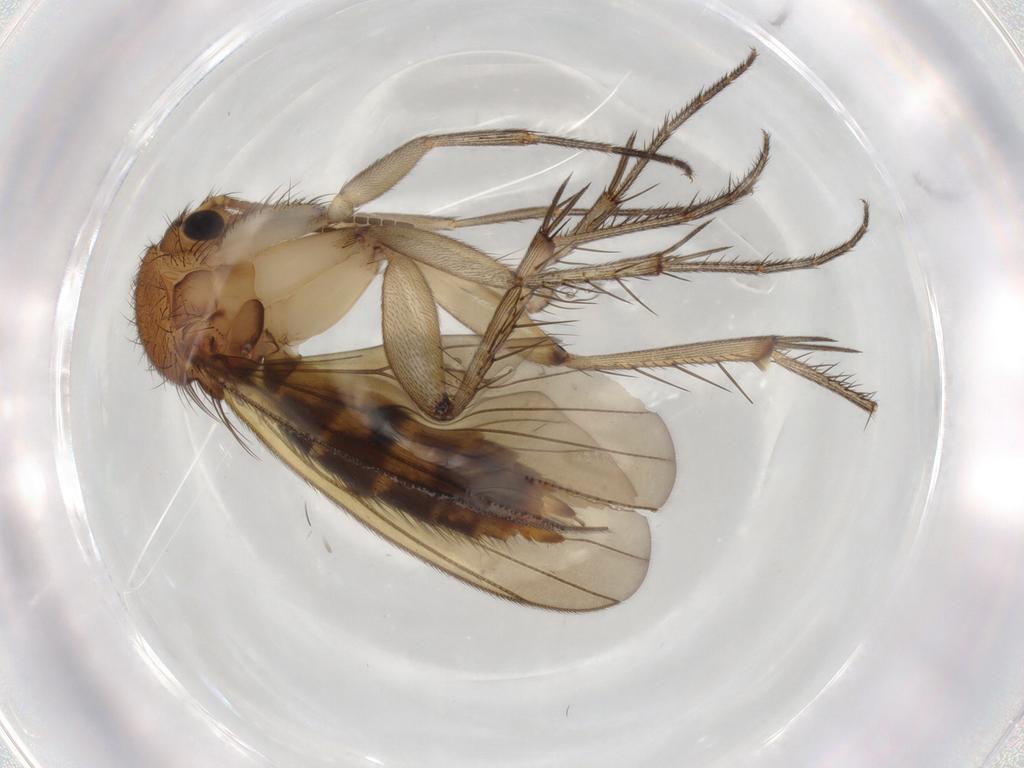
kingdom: Animalia
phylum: Arthropoda
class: Insecta
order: Diptera
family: Mycetophilidae
